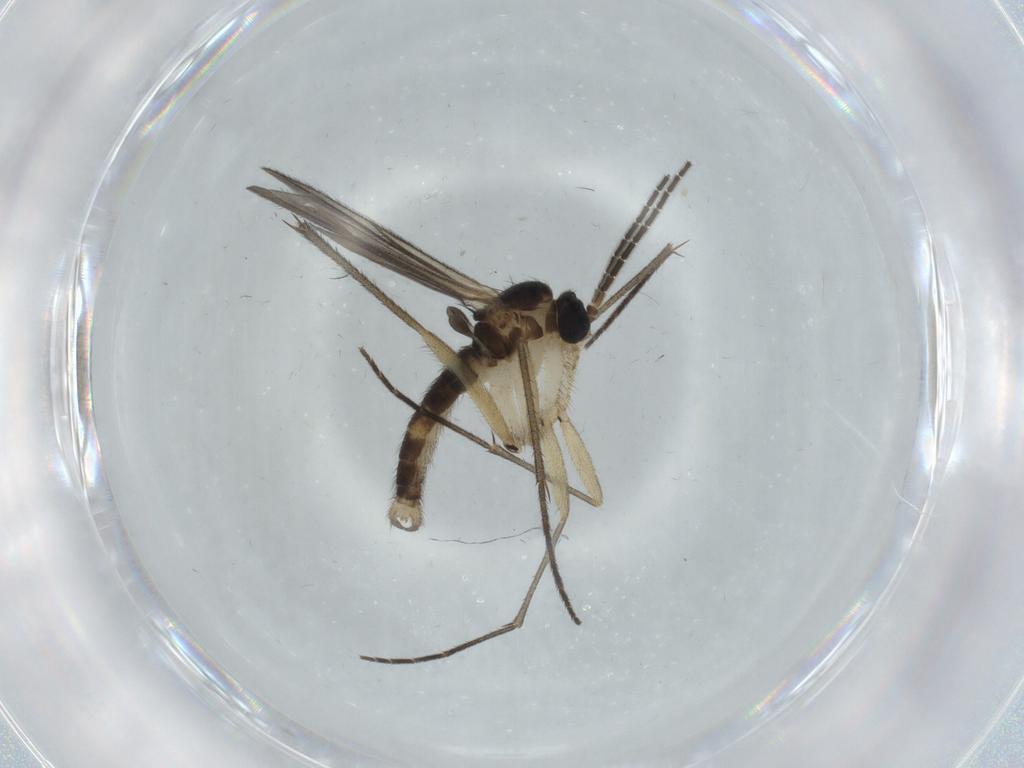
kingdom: Animalia
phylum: Arthropoda
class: Insecta
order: Diptera
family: Sciaridae
